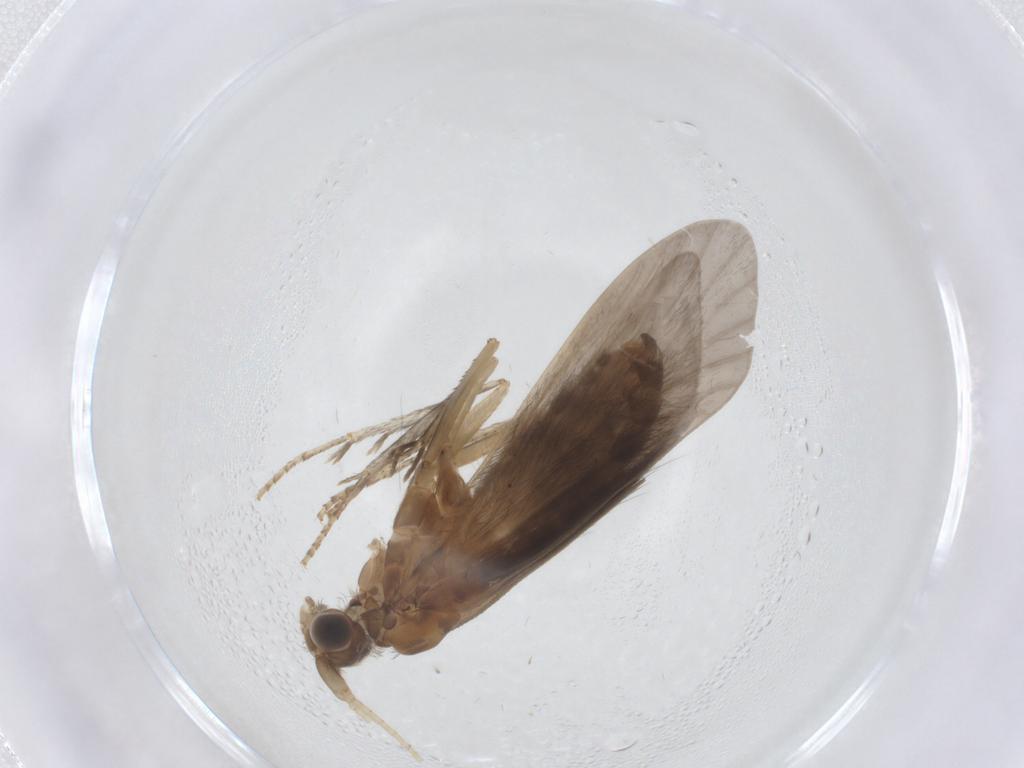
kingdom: Animalia
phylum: Arthropoda
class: Insecta
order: Trichoptera
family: Helicopsychidae
